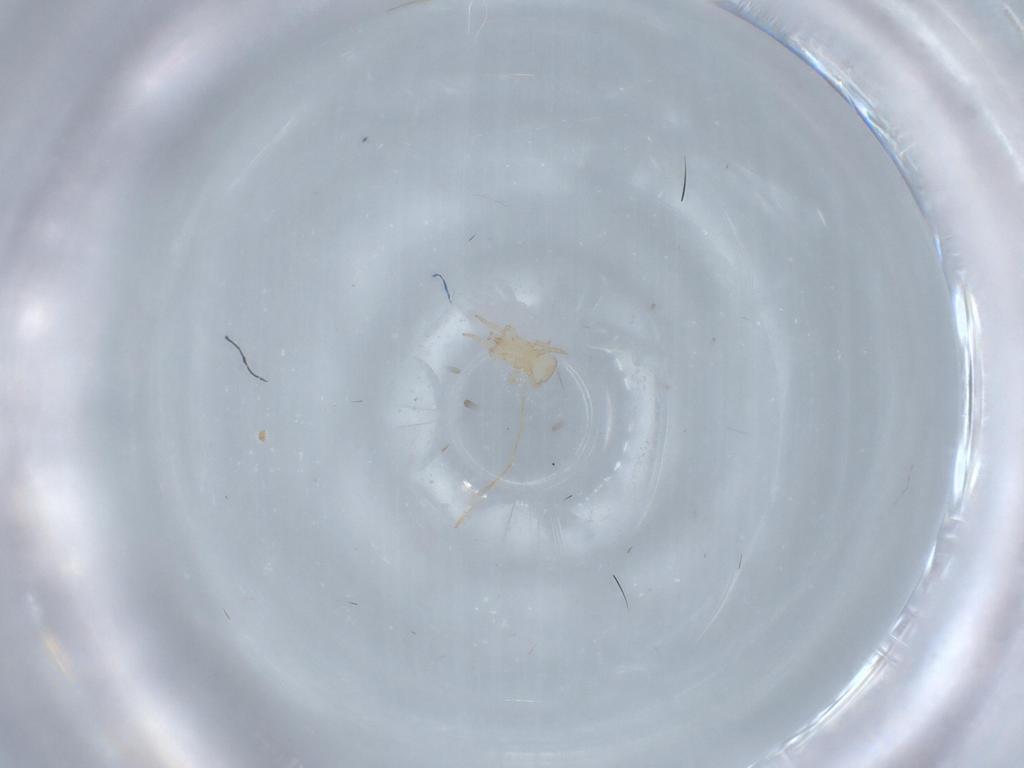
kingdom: Animalia
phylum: Arthropoda
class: Arachnida
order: Mesostigmata
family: Digamasellidae
